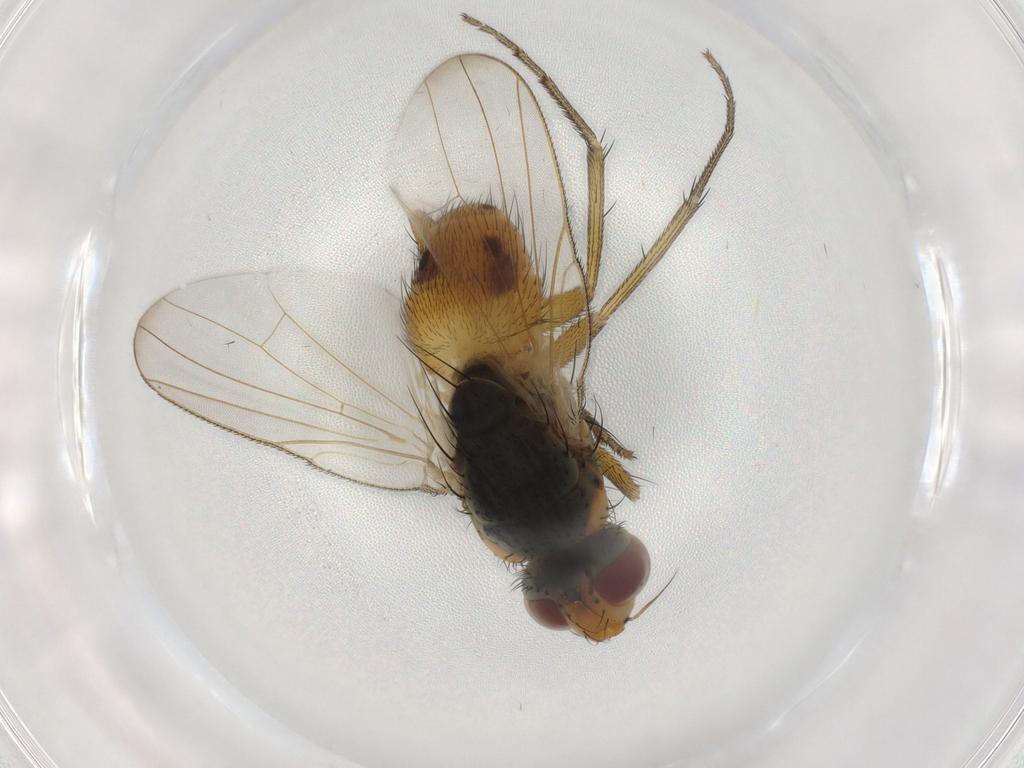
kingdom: Animalia
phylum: Arthropoda
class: Insecta
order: Diptera
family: Muscidae
